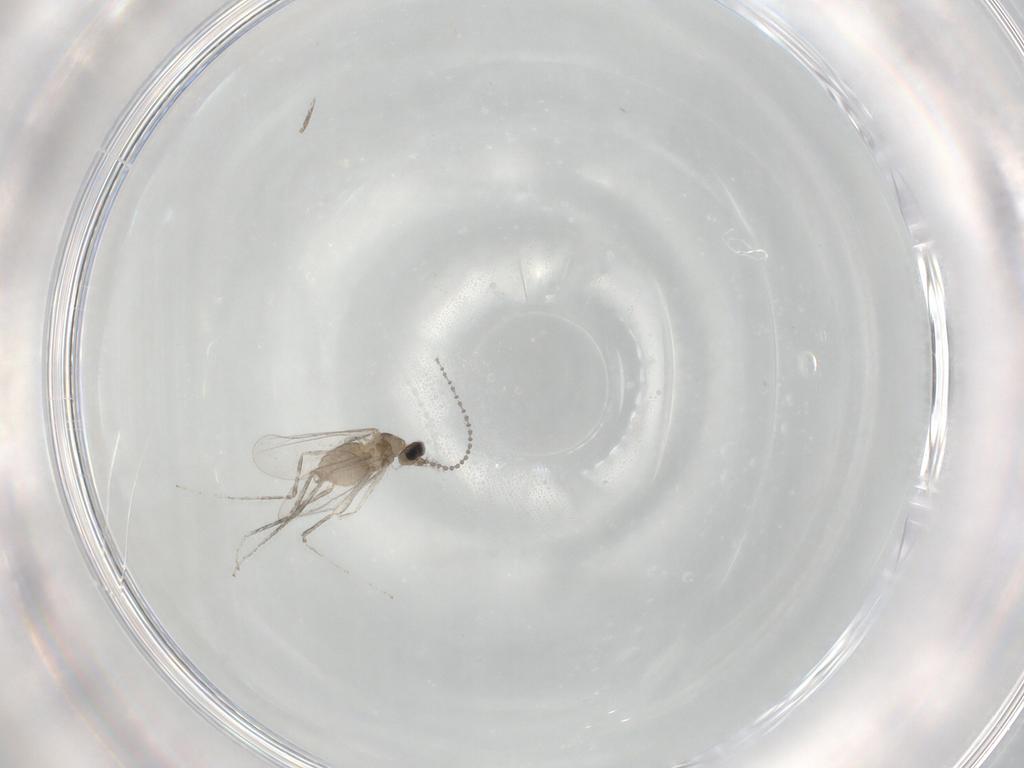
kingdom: Animalia
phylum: Arthropoda
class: Insecta
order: Diptera
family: Cecidomyiidae
